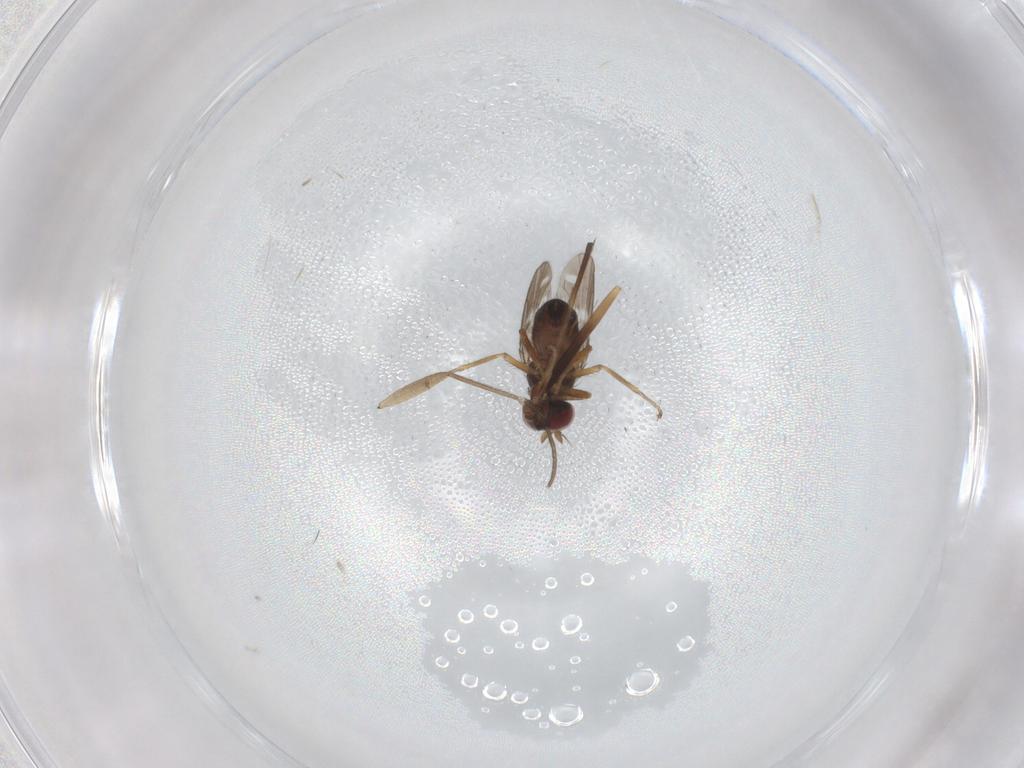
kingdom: Animalia
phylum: Arthropoda
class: Insecta
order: Diptera
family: Ephydridae
